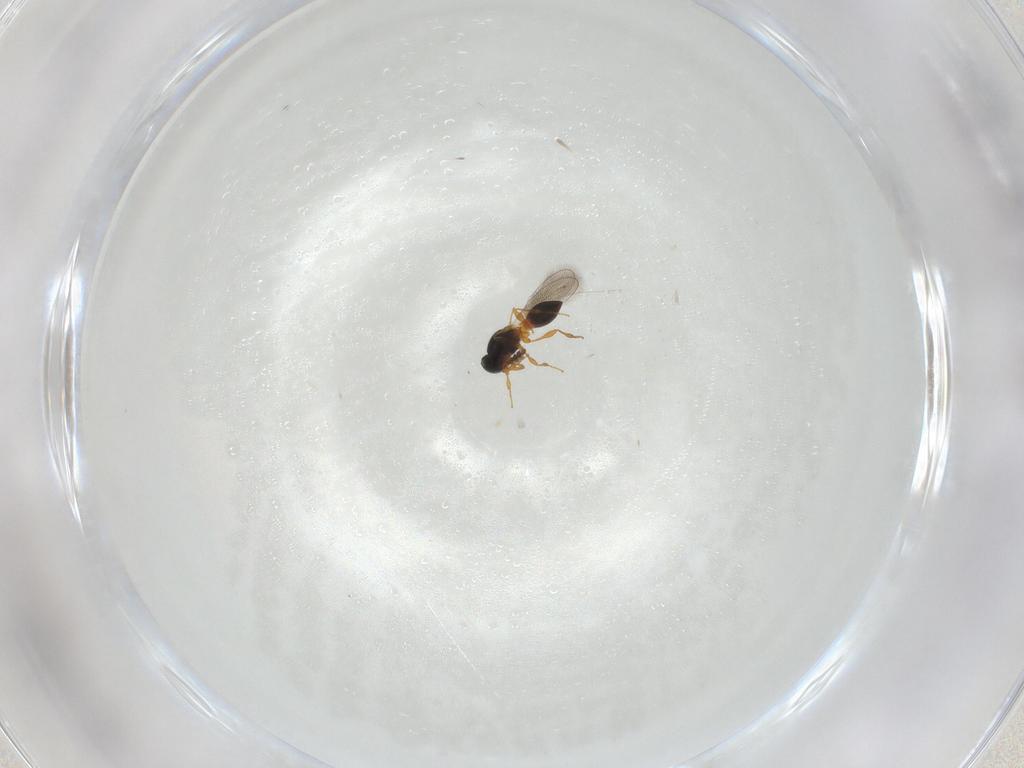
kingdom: Animalia
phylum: Arthropoda
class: Insecta
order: Hymenoptera
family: Platygastridae
